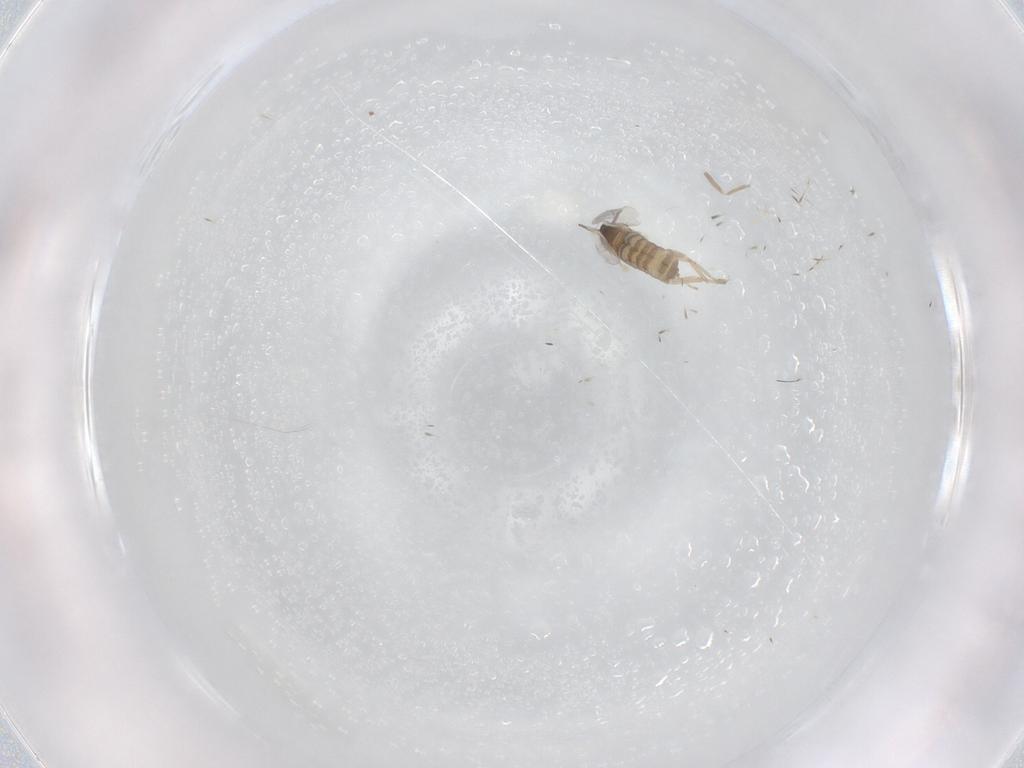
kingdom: Animalia
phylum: Arthropoda
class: Insecta
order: Diptera
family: Cecidomyiidae
